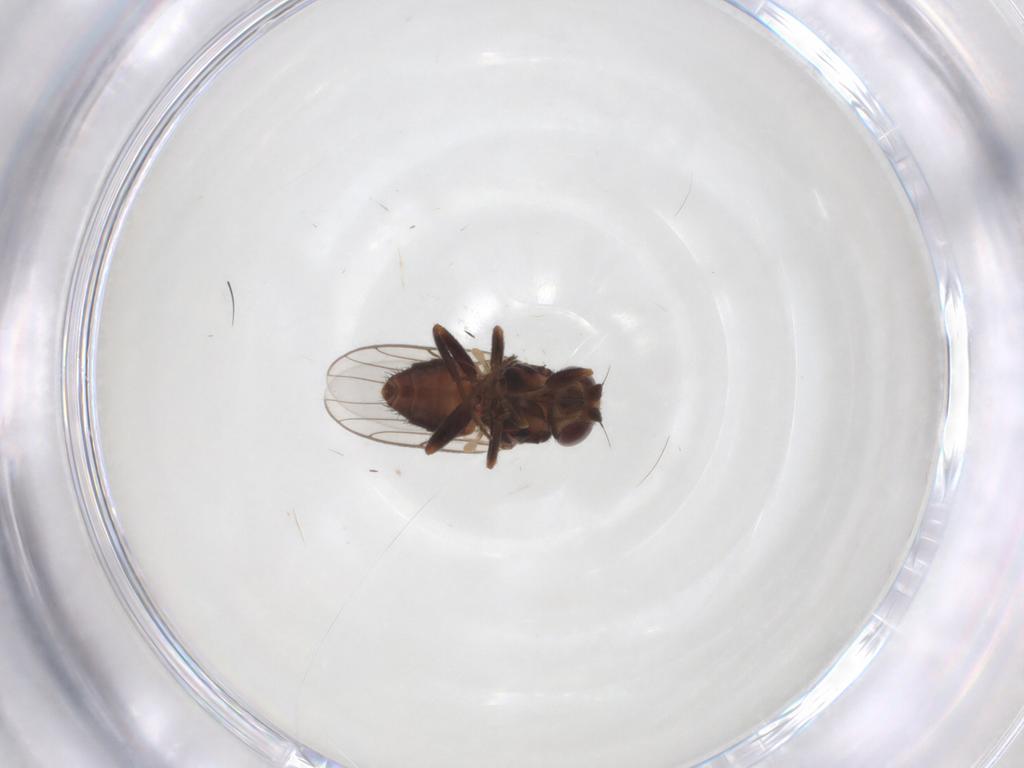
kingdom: Animalia
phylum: Arthropoda
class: Insecta
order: Diptera
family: Chloropidae
